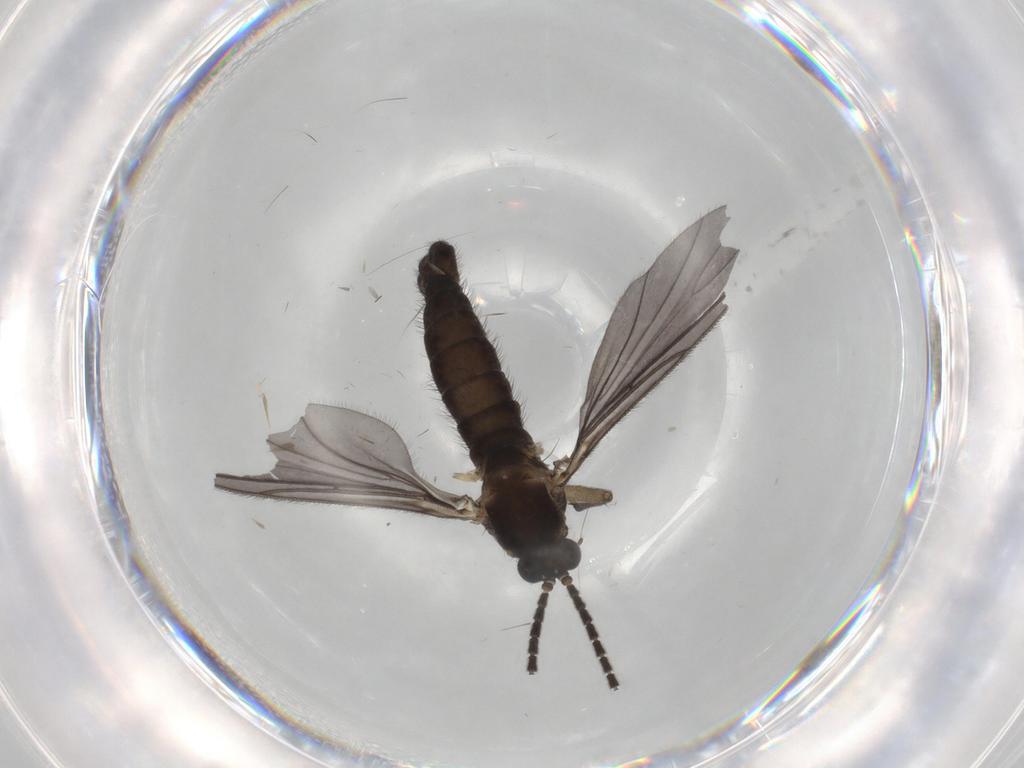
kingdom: Animalia
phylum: Arthropoda
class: Insecta
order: Diptera
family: Sciaridae
